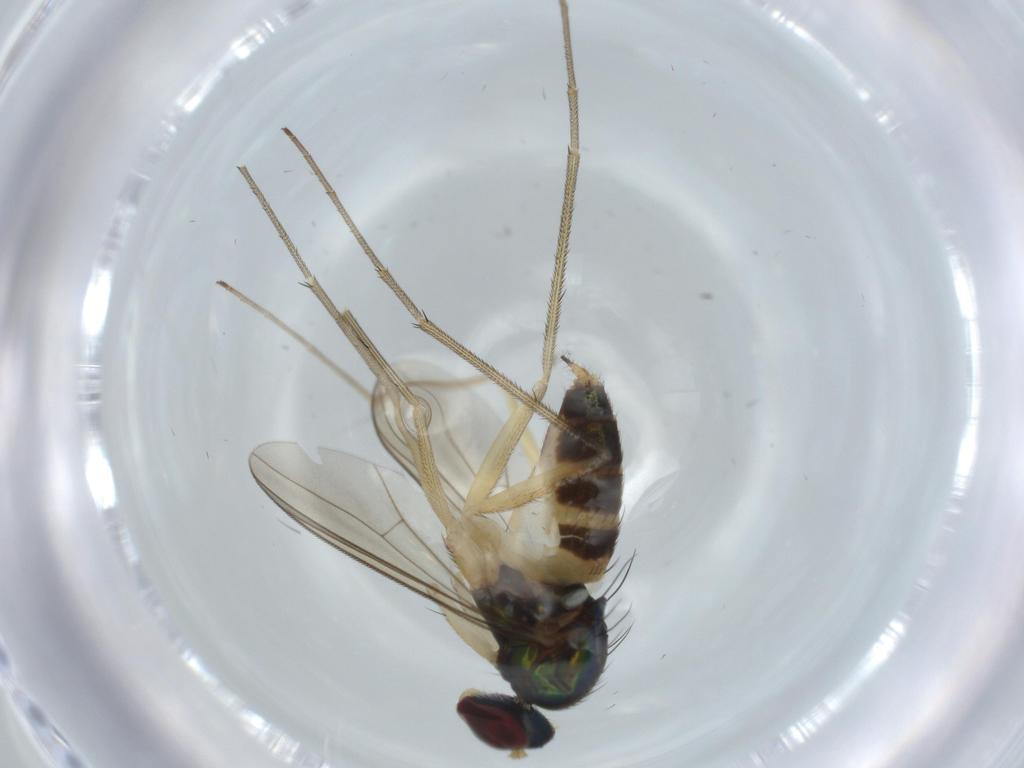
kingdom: Animalia
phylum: Arthropoda
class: Insecta
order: Diptera
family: Dolichopodidae
